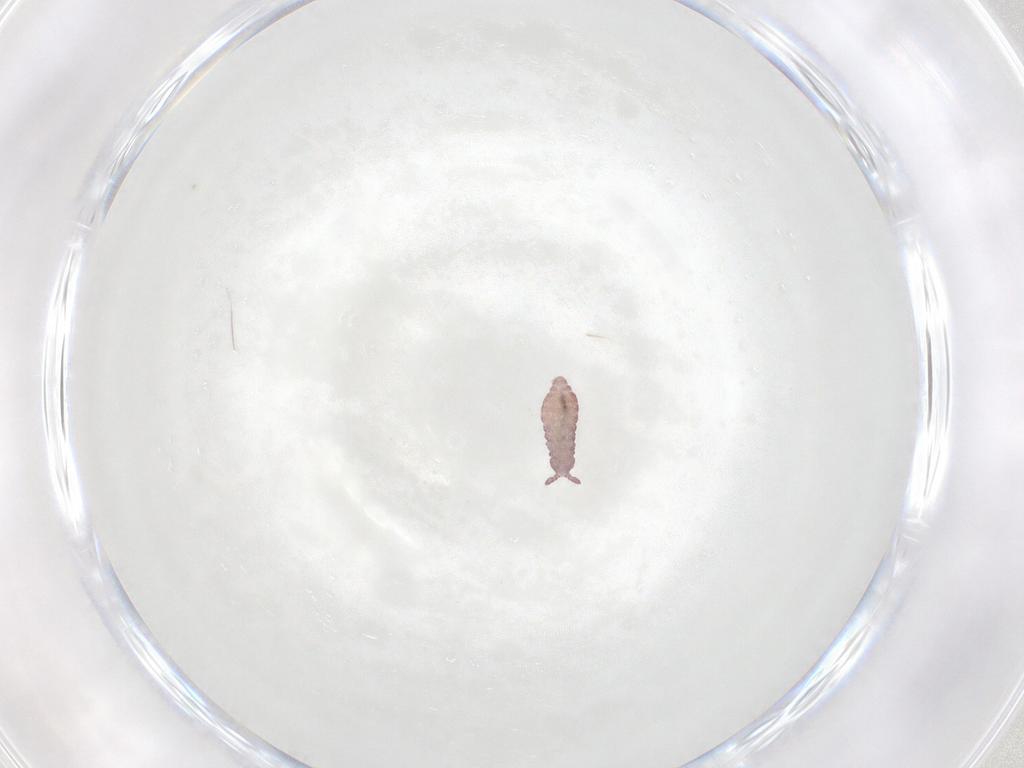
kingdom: Animalia
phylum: Arthropoda
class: Collembola
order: Poduromorpha
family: Hypogastruridae
